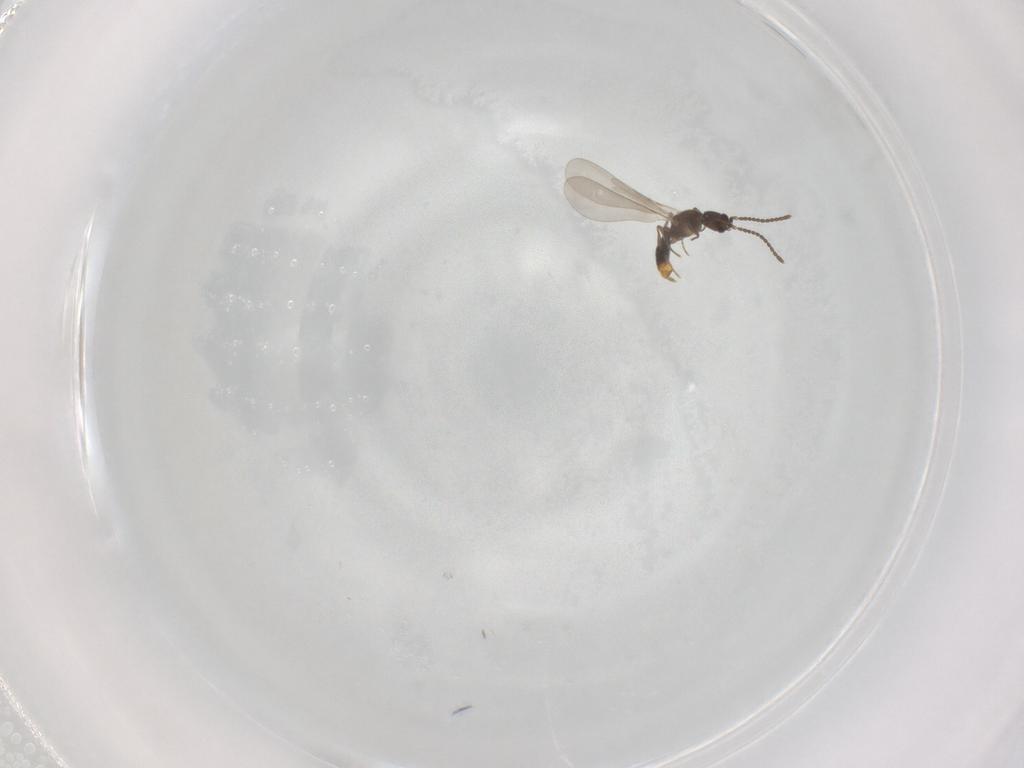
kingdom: Animalia
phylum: Arthropoda
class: Insecta
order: Hymenoptera
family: Formicidae
